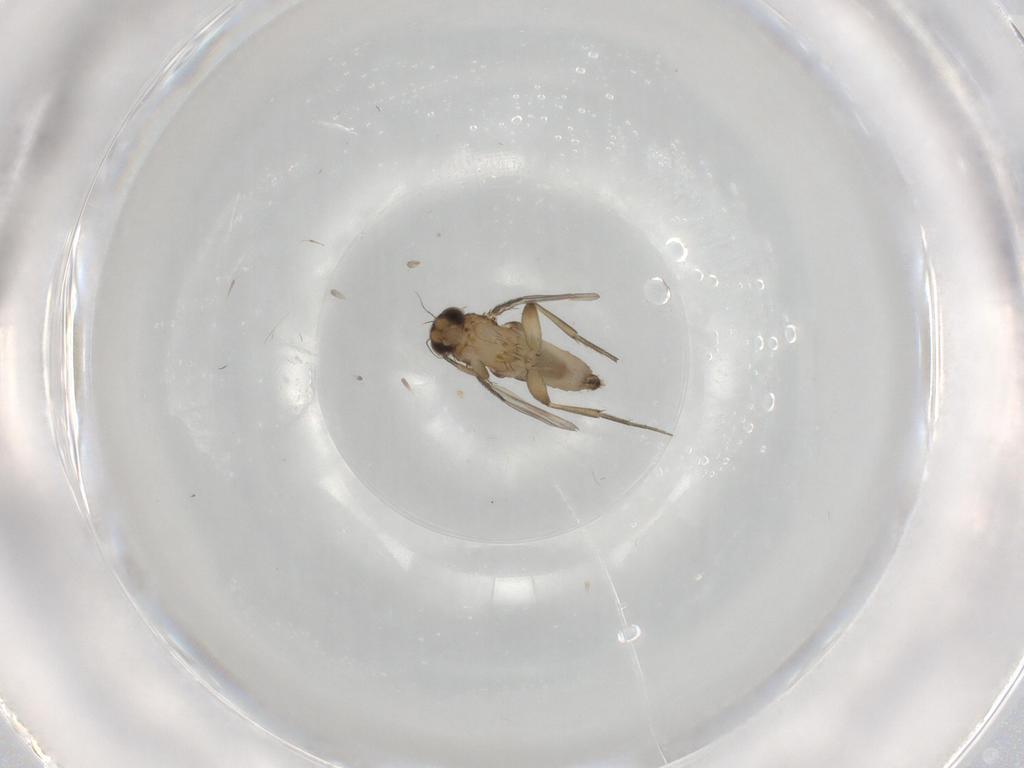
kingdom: Animalia
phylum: Arthropoda
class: Insecta
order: Diptera
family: Phoridae
